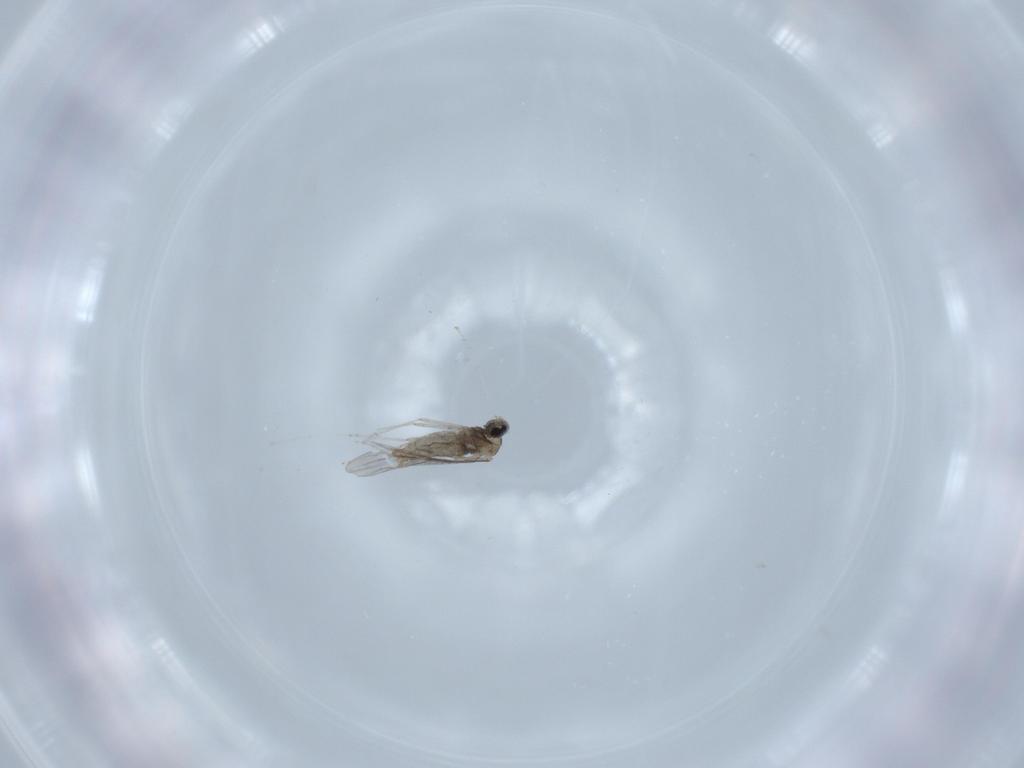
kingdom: Animalia
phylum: Arthropoda
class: Insecta
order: Diptera
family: Cecidomyiidae
